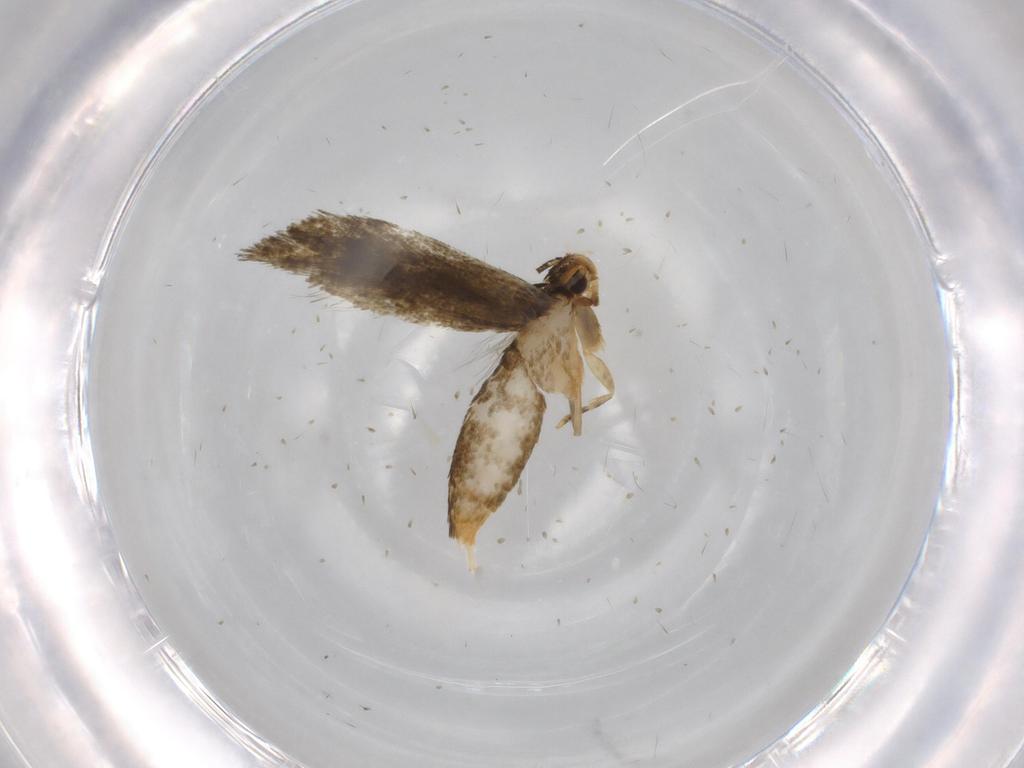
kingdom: Animalia
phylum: Arthropoda
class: Insecta
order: Lepidoptera
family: Tineidae
